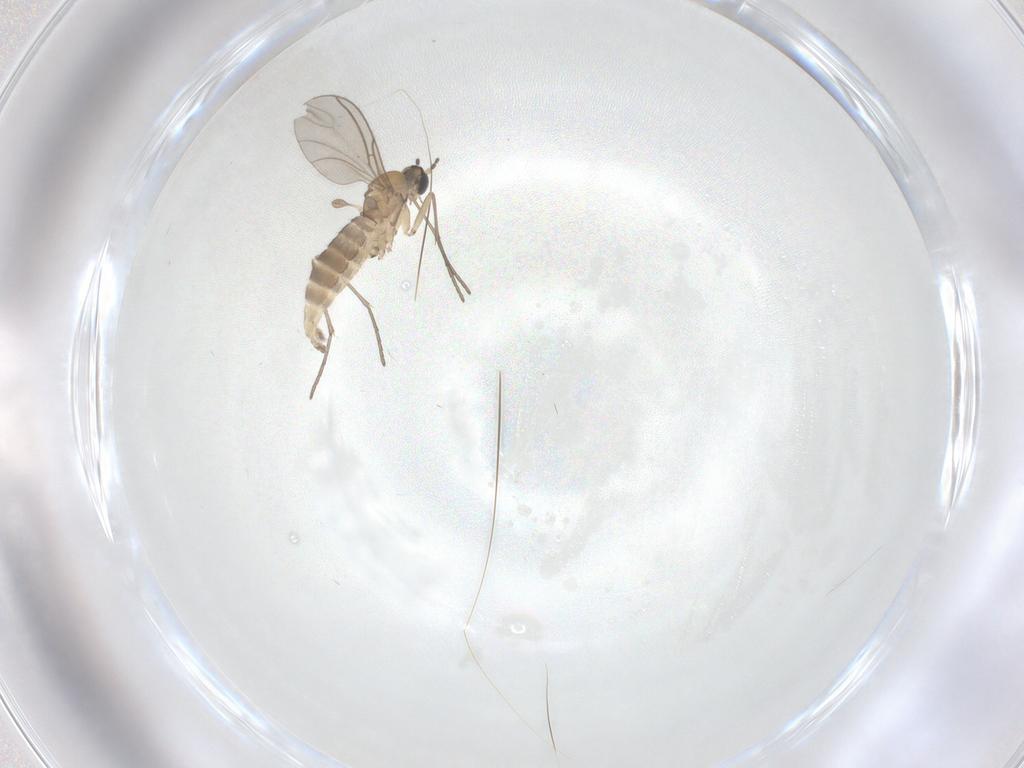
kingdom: Animalia
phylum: Arthropoda
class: Insecta
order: Diptera
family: Sciaridae
